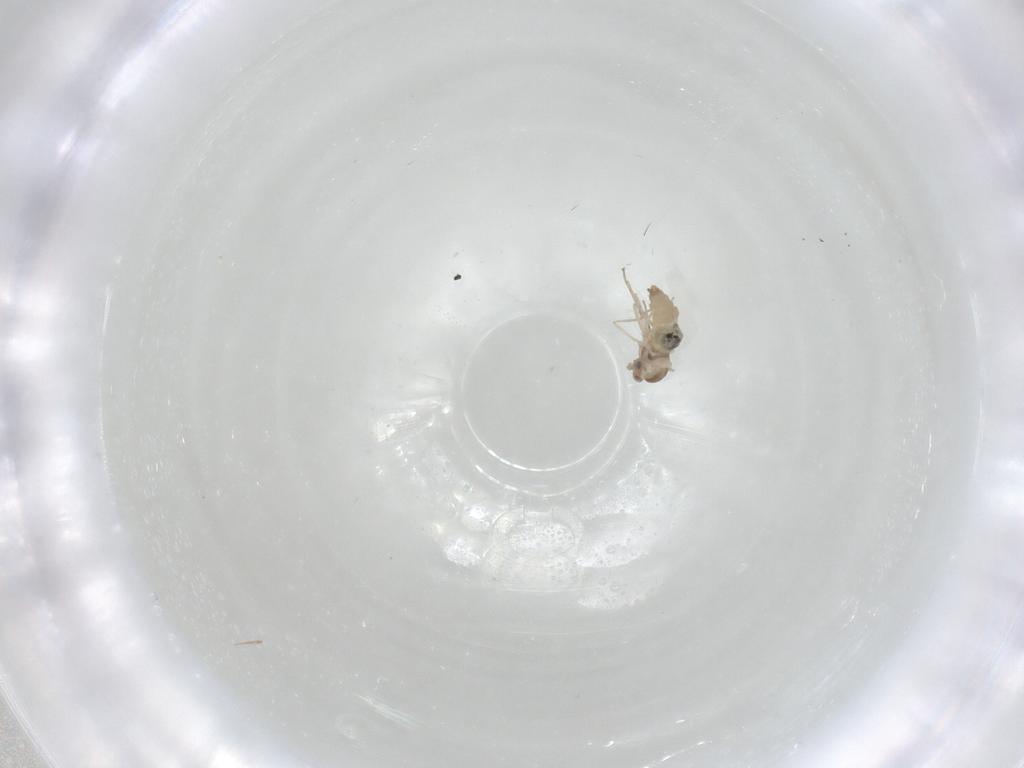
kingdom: Animalia
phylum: Arthropoda
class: Insecta
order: Diptera
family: Cecidomyiidae
